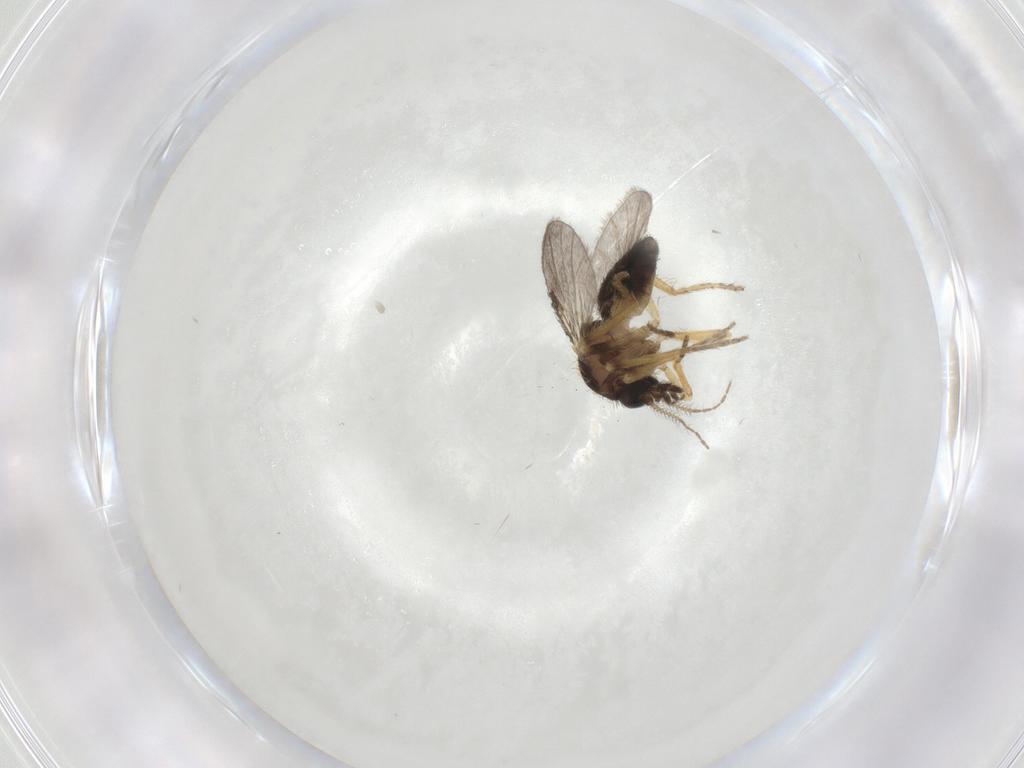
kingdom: Animalia
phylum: Arthropoda
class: Insecta
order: Diptera
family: Ceratopogonidae
